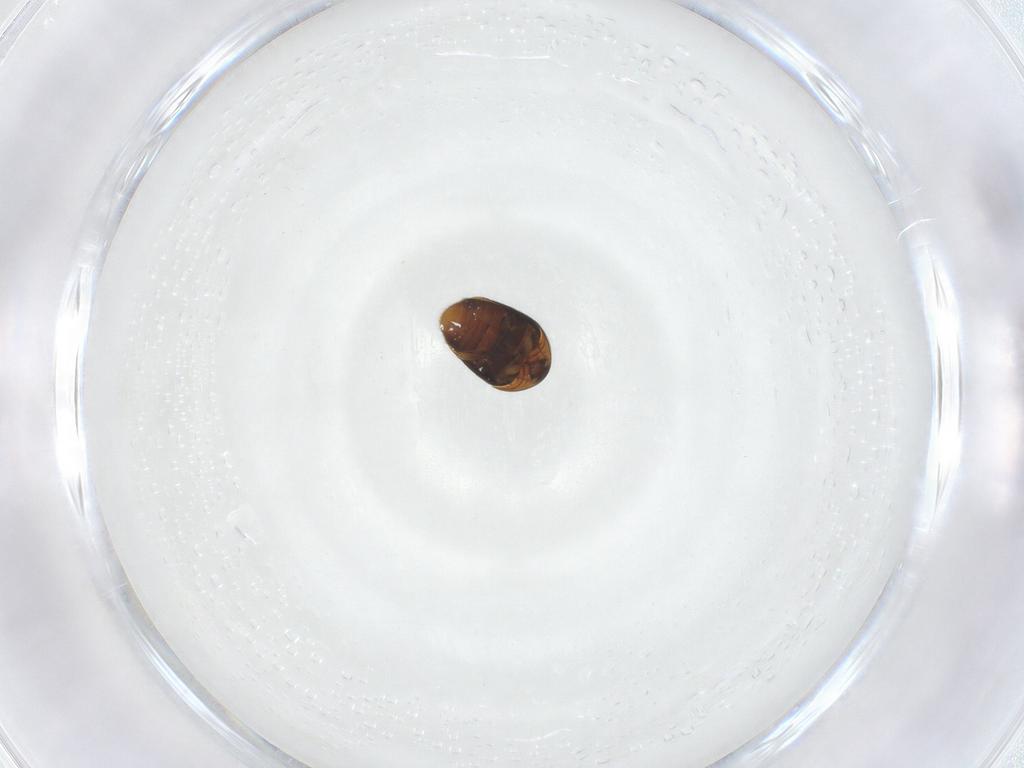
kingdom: Animalia
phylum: Arthropoda
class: Insecta
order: Coleoptera
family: Corylophidae
